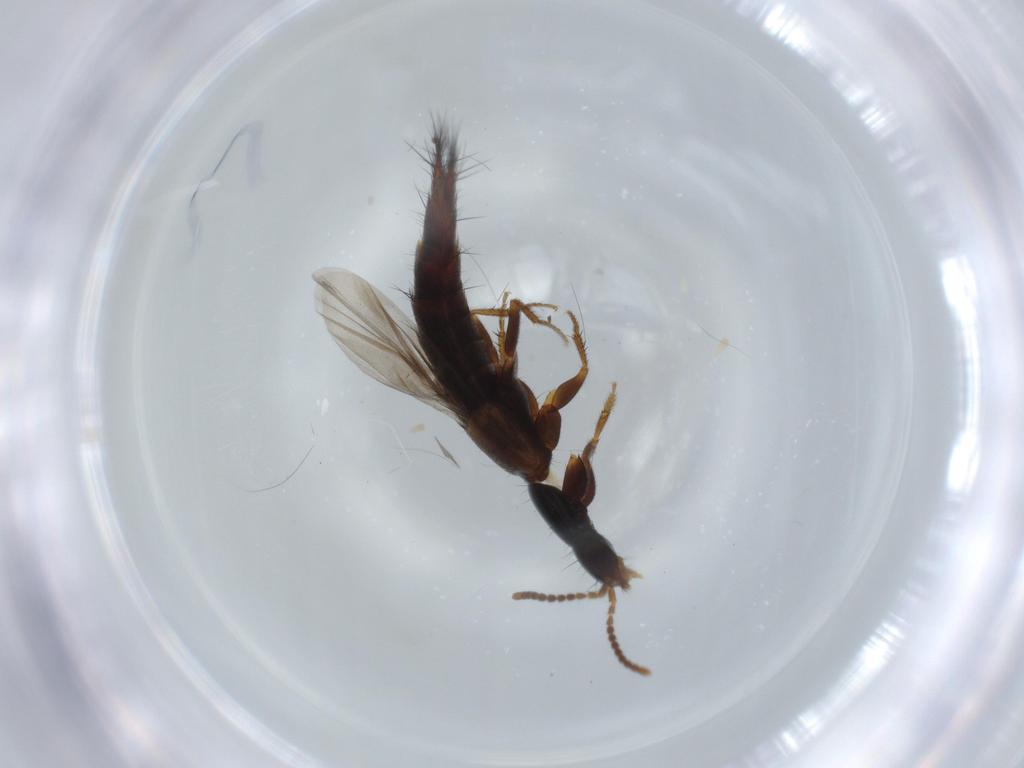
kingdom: Animalia
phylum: Arthropoda
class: Insecta
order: Coleoptera
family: Staphylinidae
